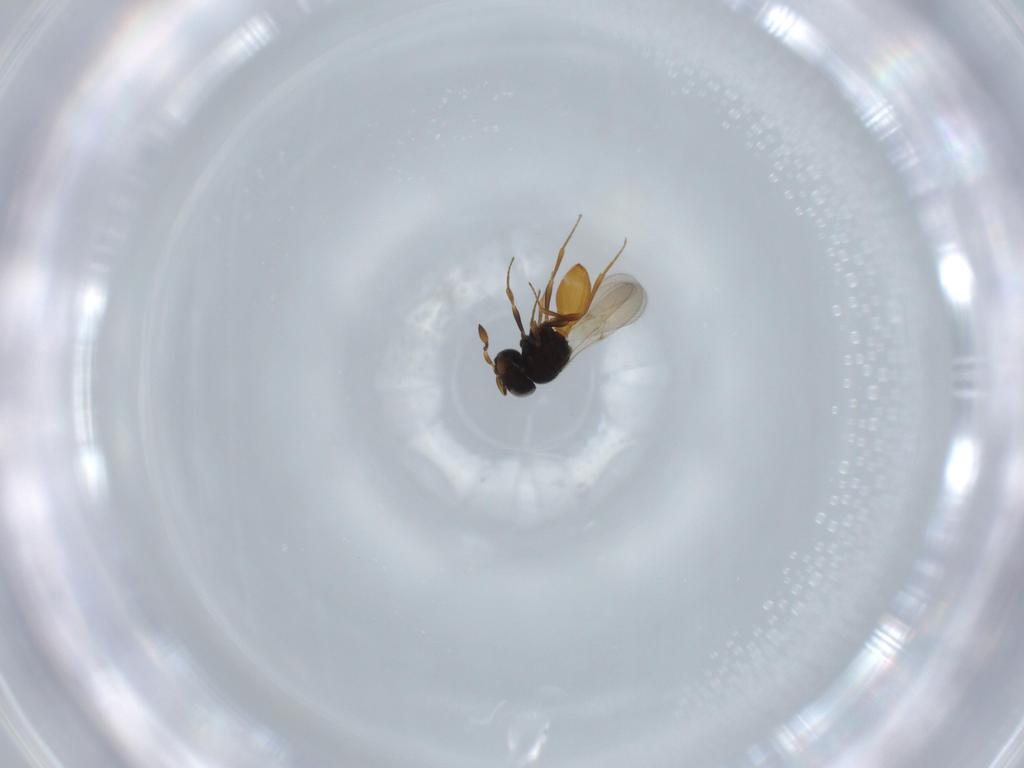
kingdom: Animalia
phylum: Arthropoda
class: Insecta
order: Hymenoptera
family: Scelionidae
